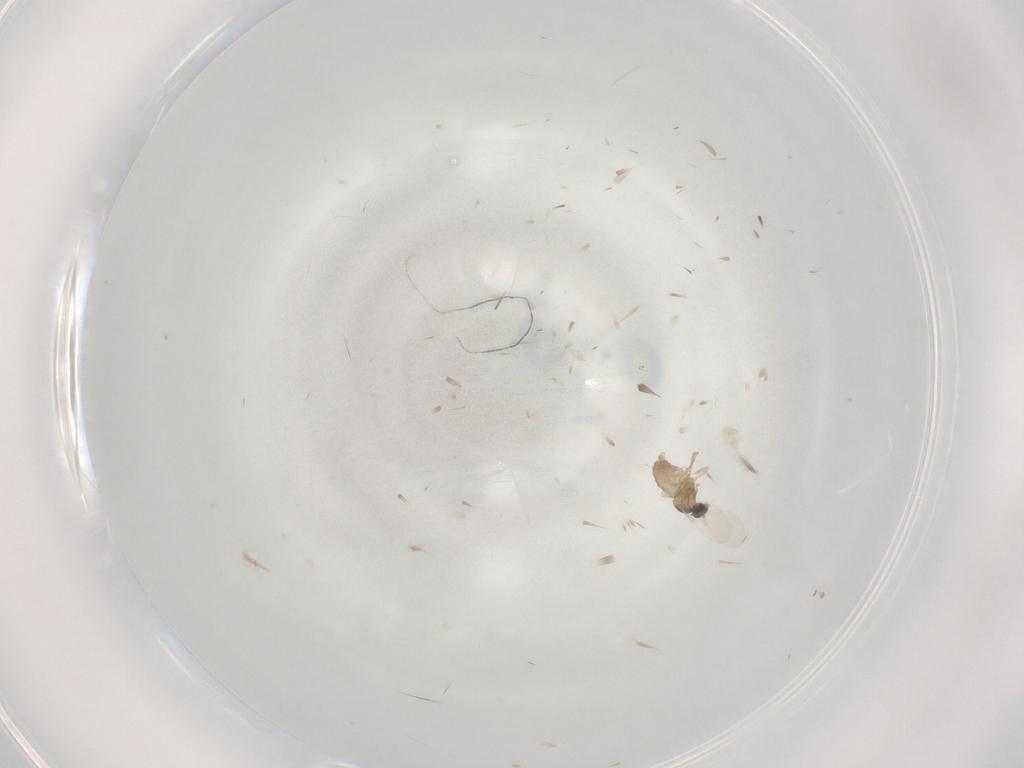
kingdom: Animalia
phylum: Arthropoda
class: Insecta
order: Diptera
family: Cecidomyiidae
